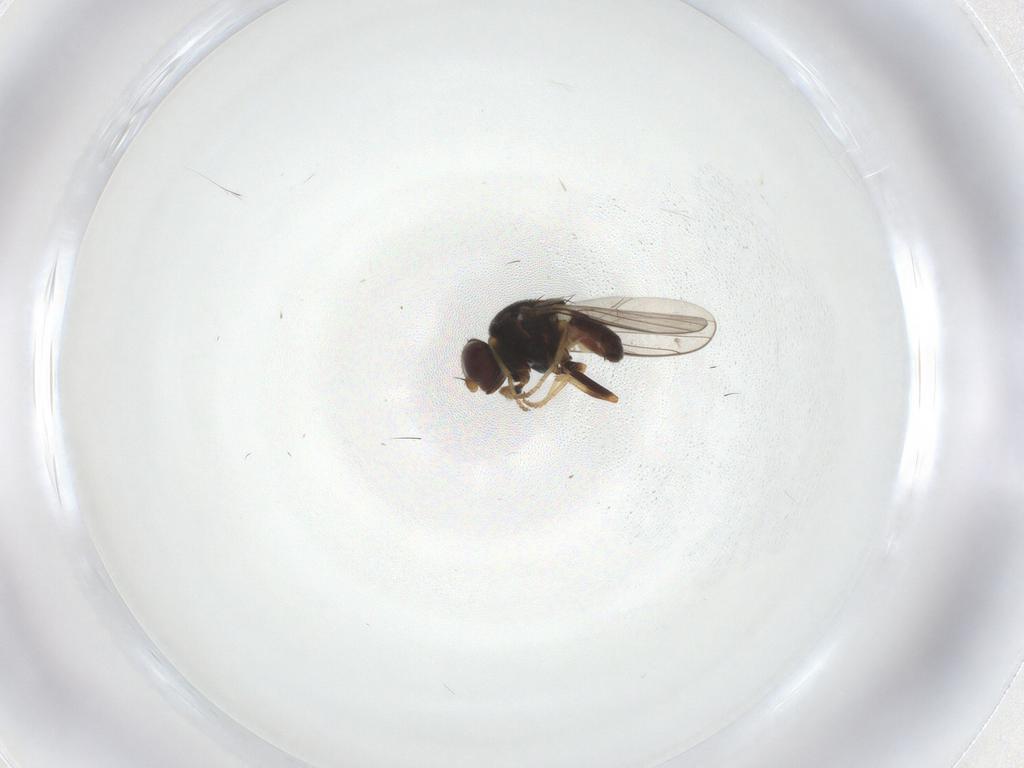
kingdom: Animalia
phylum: Arthropoda
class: Insecta
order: Diptera
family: Chloropidae
